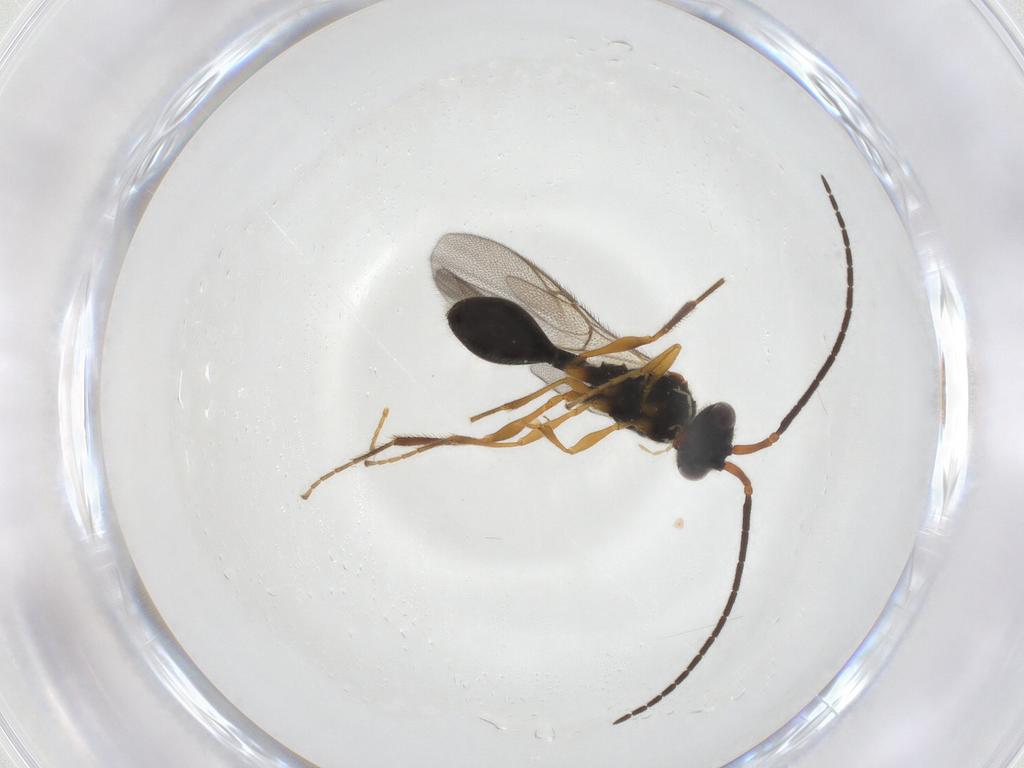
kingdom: Animalia
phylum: Arthropoda
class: Insecta
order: Hymenoptera
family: Diapriidae
